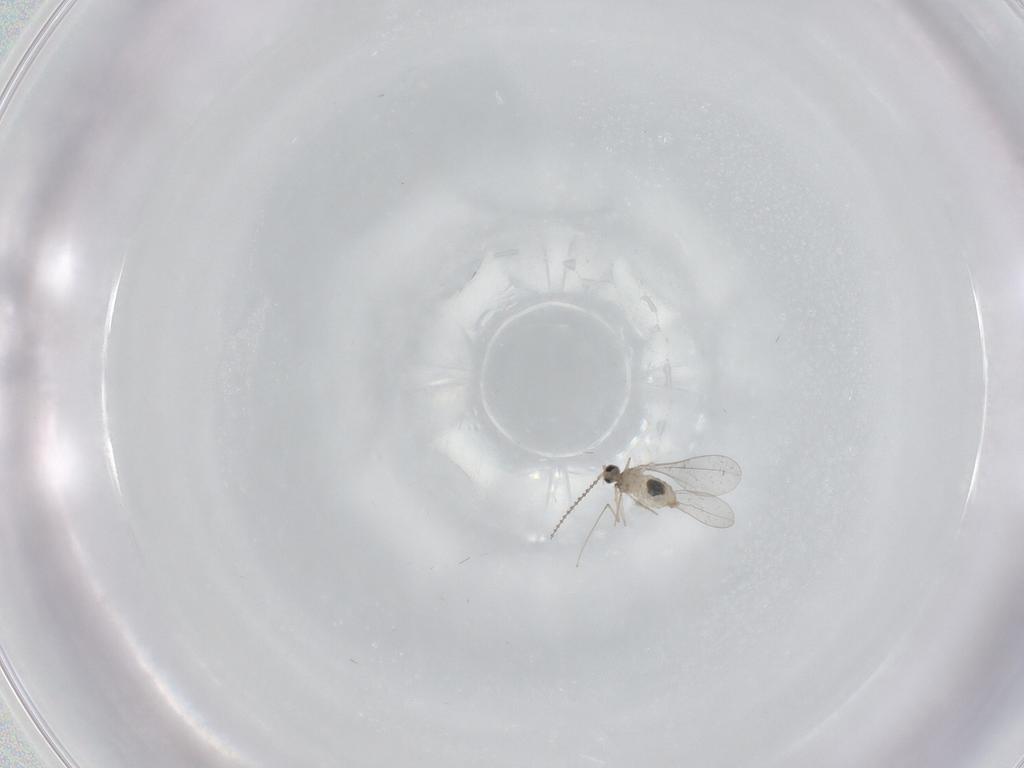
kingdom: Animalia
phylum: Arthropoda
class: Insecta
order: Diptera
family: Cecidomyiidae
